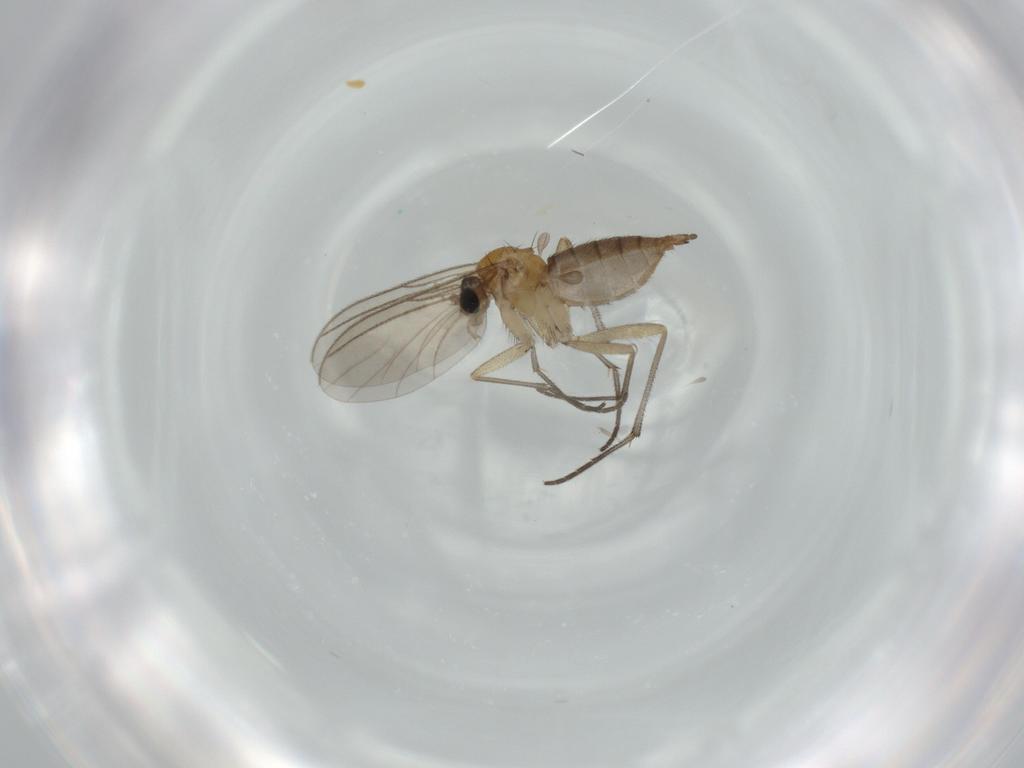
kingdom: Animalia
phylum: Arthropoda
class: Insecta
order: Diptera
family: Sciaridae
